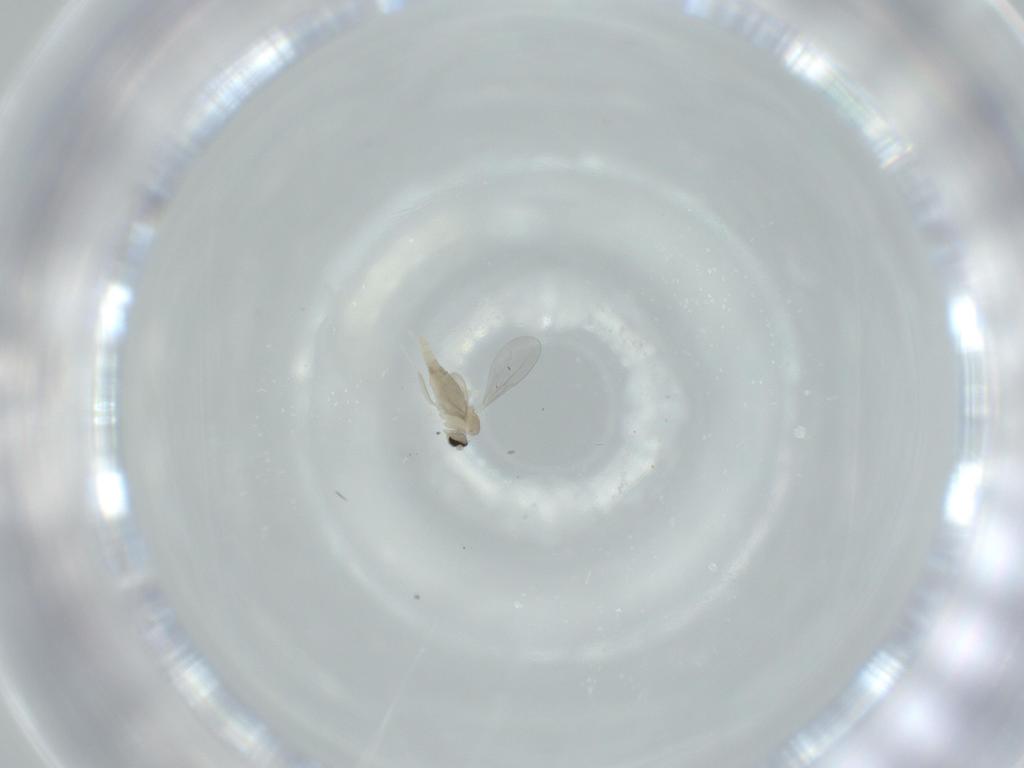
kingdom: Animalia
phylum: Arthropoda
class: Insecta
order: Diptera
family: Cecidomyiidae
